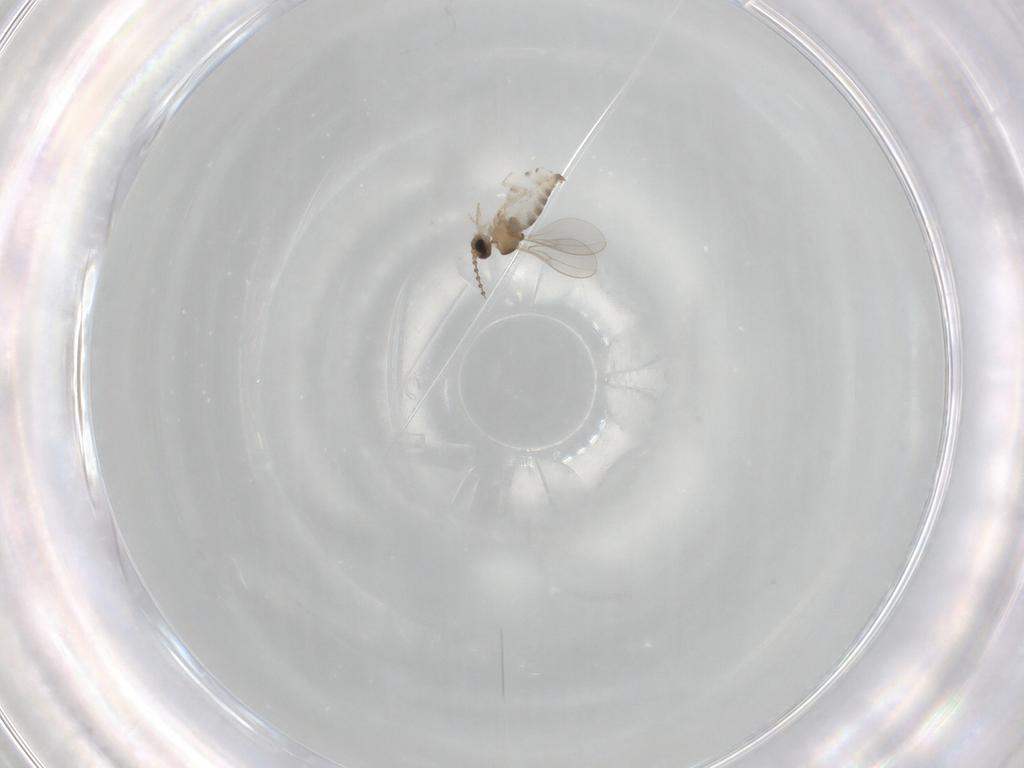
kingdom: Animalia
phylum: Arthropoda
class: Insecta
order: Diptera
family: Cecidomyiidae
